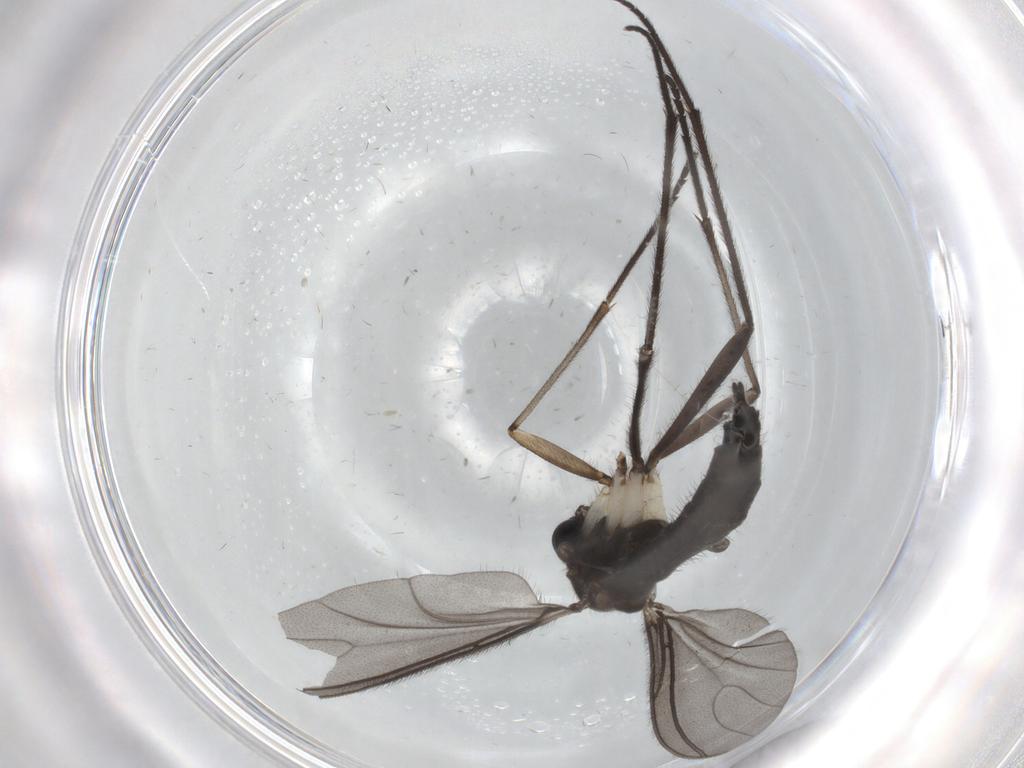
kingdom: Animalia
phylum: Arthropoda
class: Insecta
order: Diptera
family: Sciaridae
